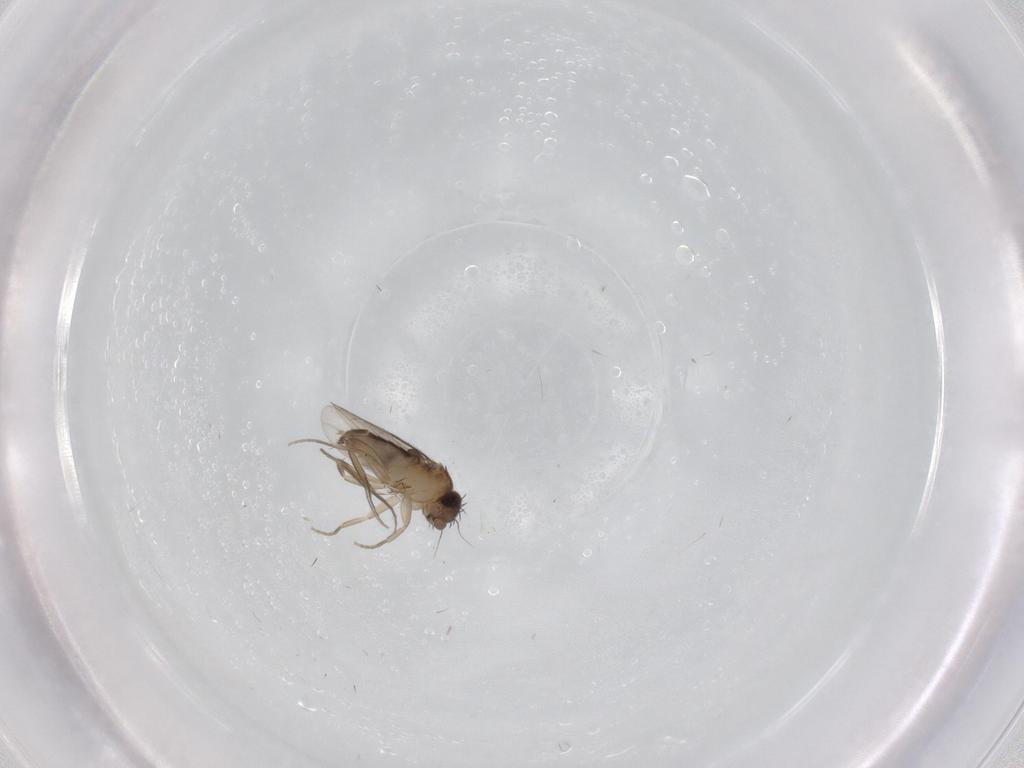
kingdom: Animalia
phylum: Arthropoda
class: Insecta
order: Diptera
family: Phoridae
